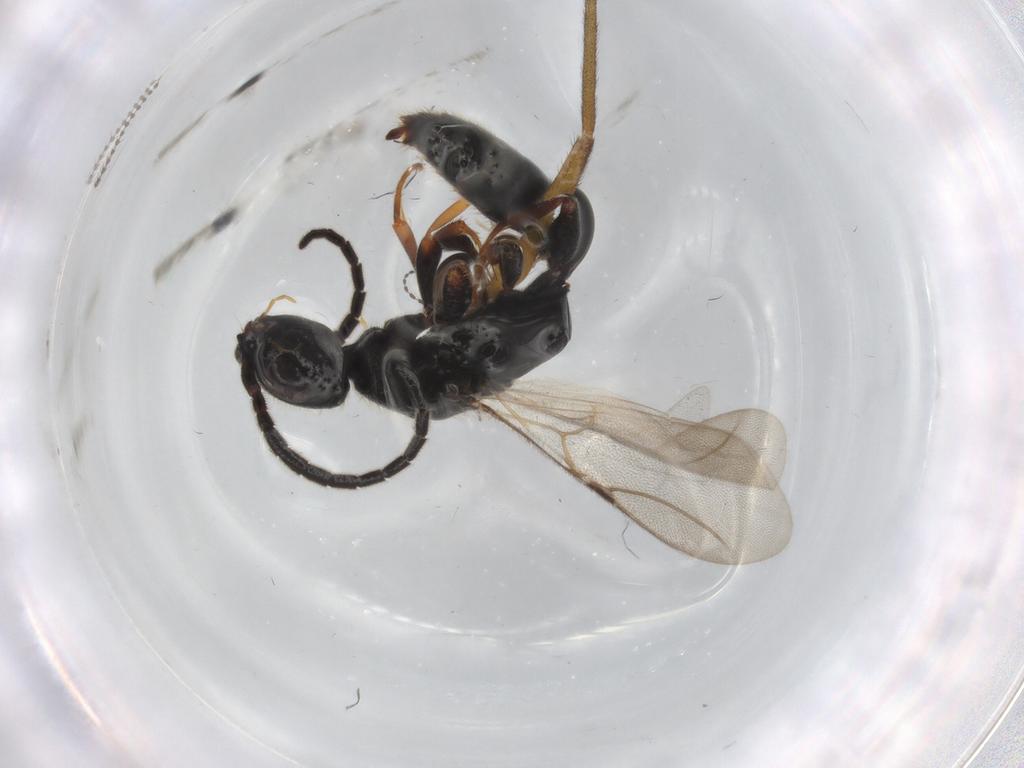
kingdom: Animalia
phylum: Arthropoda
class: Insecta
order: Hymenoptera
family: Bethylidae
